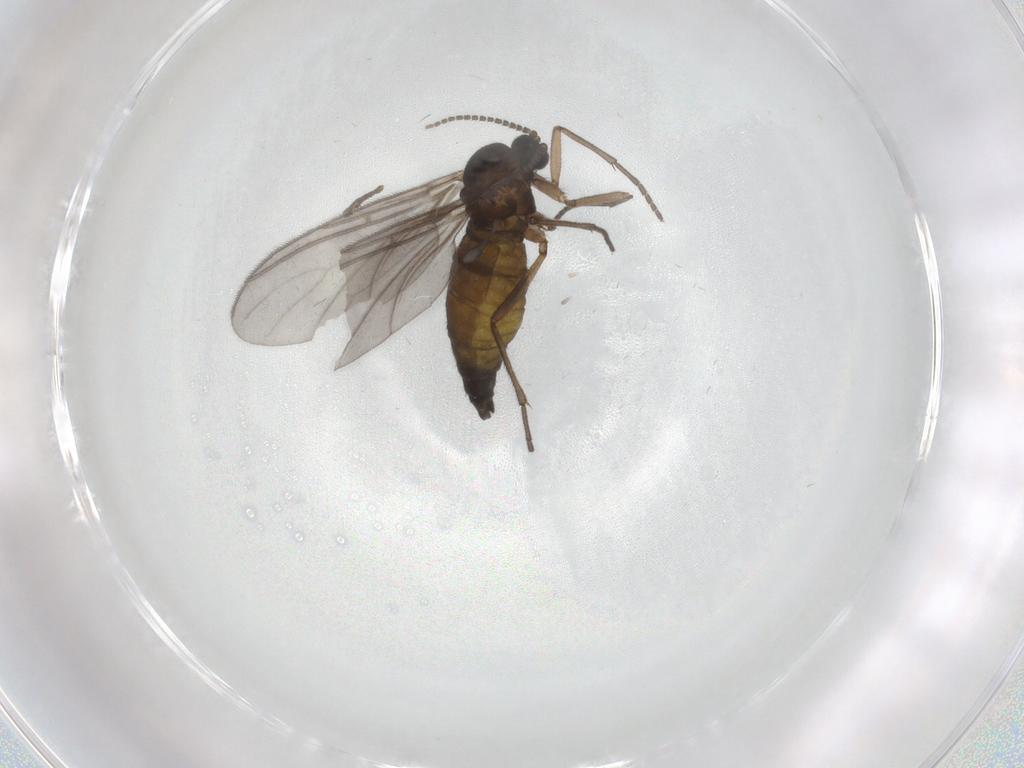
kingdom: Animalia
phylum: Arthropoda
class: Insecta
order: Diptera
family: Sciaridae
